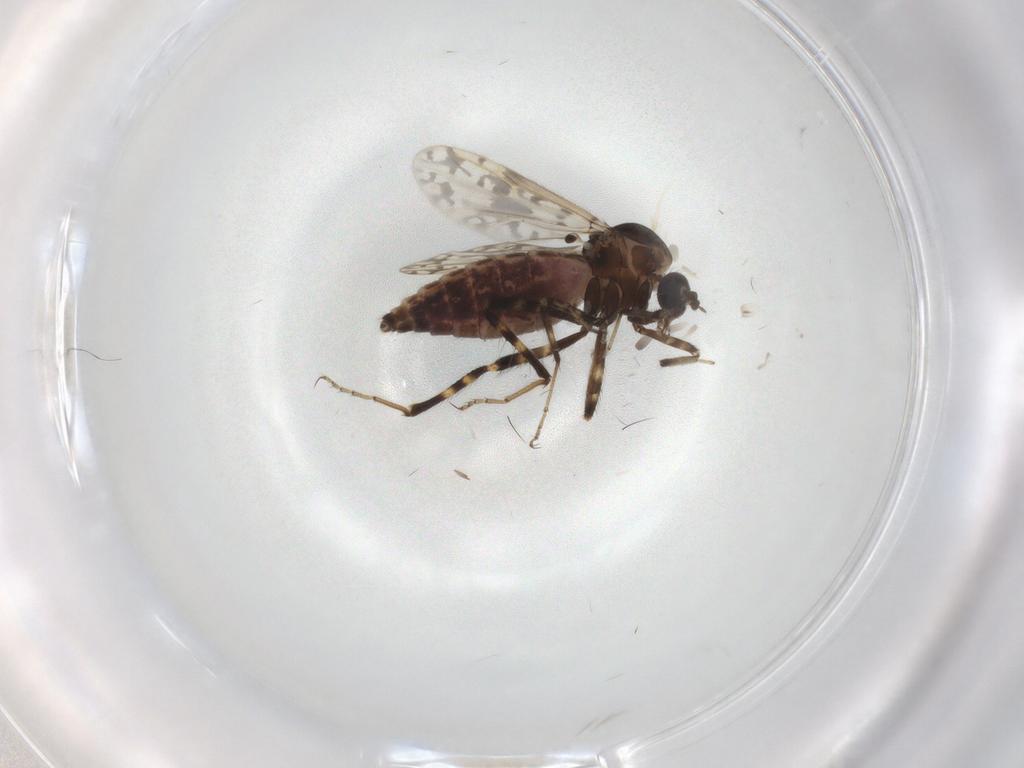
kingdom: Animalia
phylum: Arthropoda
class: Insecta
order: Diptera
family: Ceratopogonidae
